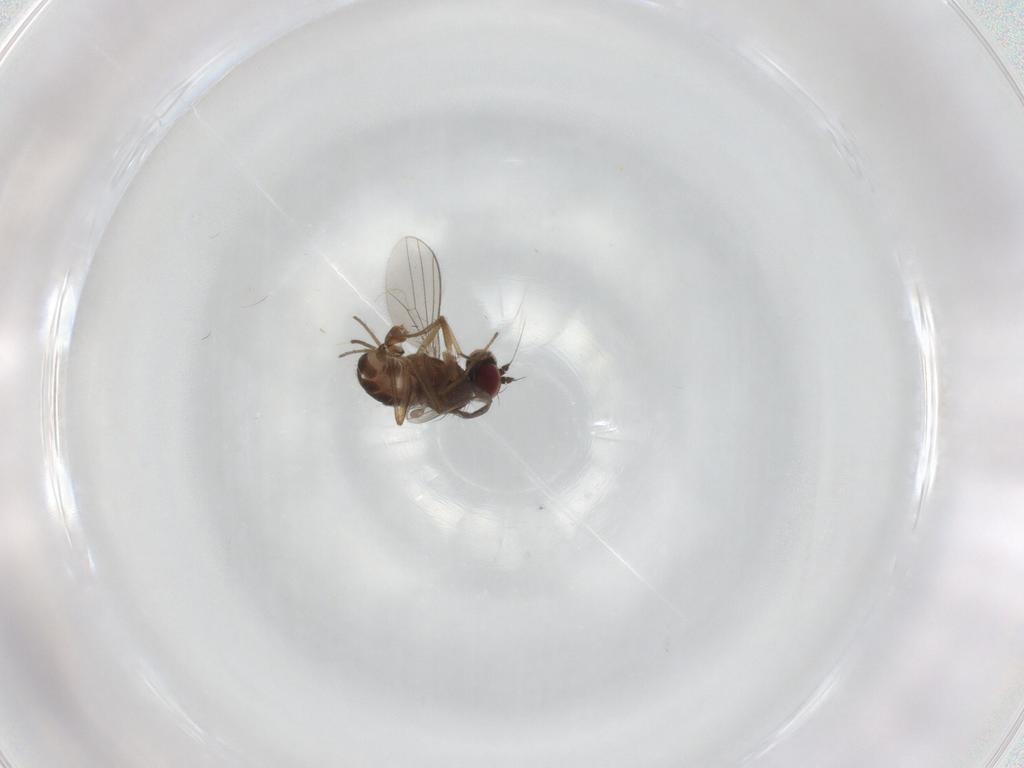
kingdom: Animalia
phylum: Arthropoda
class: Insecta
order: Diptera
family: Dolichopodidae
